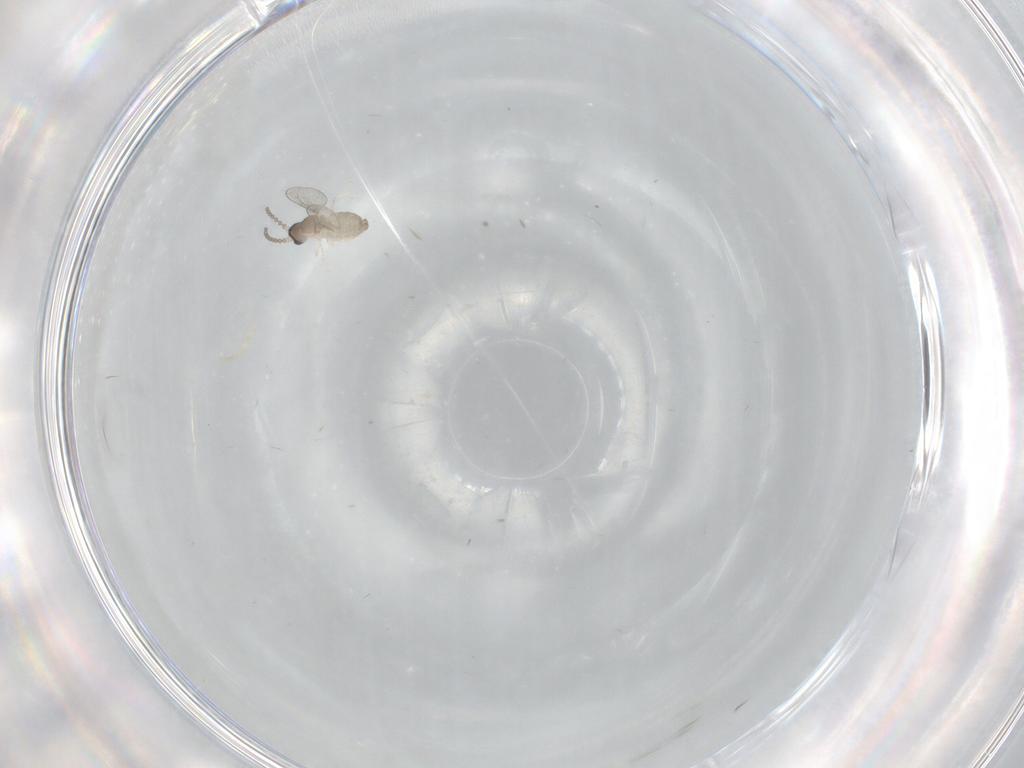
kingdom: Animalia
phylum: Arthropoda
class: Insecta
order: Diptera
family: Cecidomyiidae
